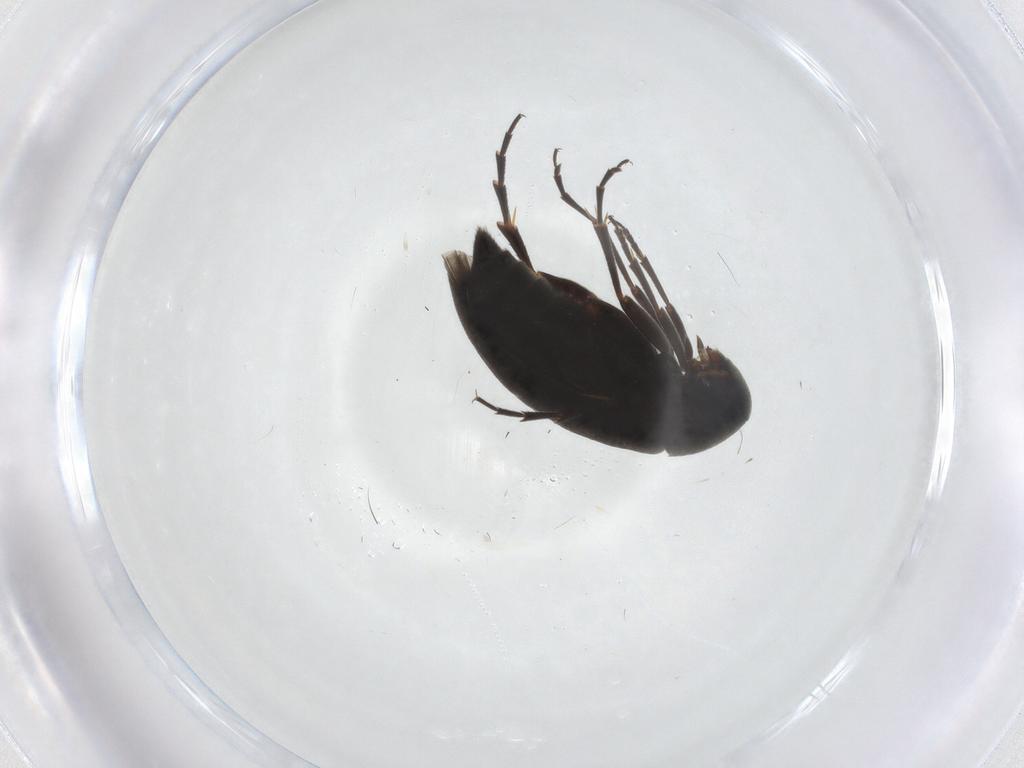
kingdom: Animalia
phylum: Arthropoda
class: Insecta
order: Coleoptera
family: Scraptiidae
